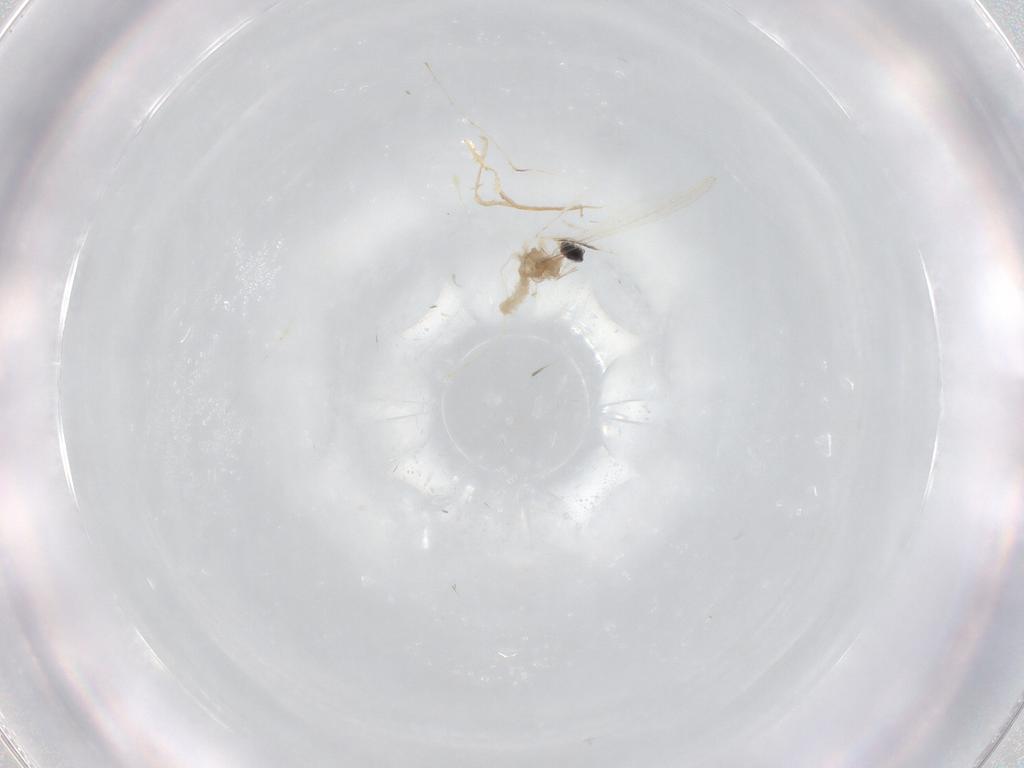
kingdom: Animalia
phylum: Arthropoda
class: Insecta
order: Diptera
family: Cecidomyiidae
